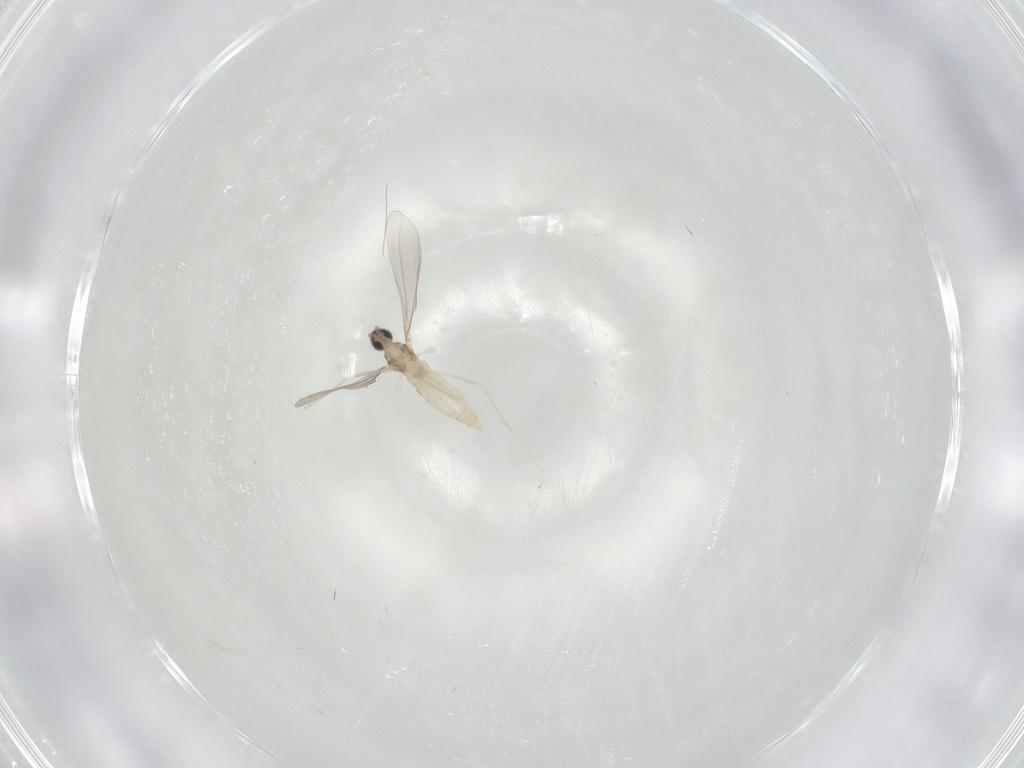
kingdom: Animalia
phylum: Arthropoda
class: Insecta
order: Diptera
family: Cecidomyiidae
